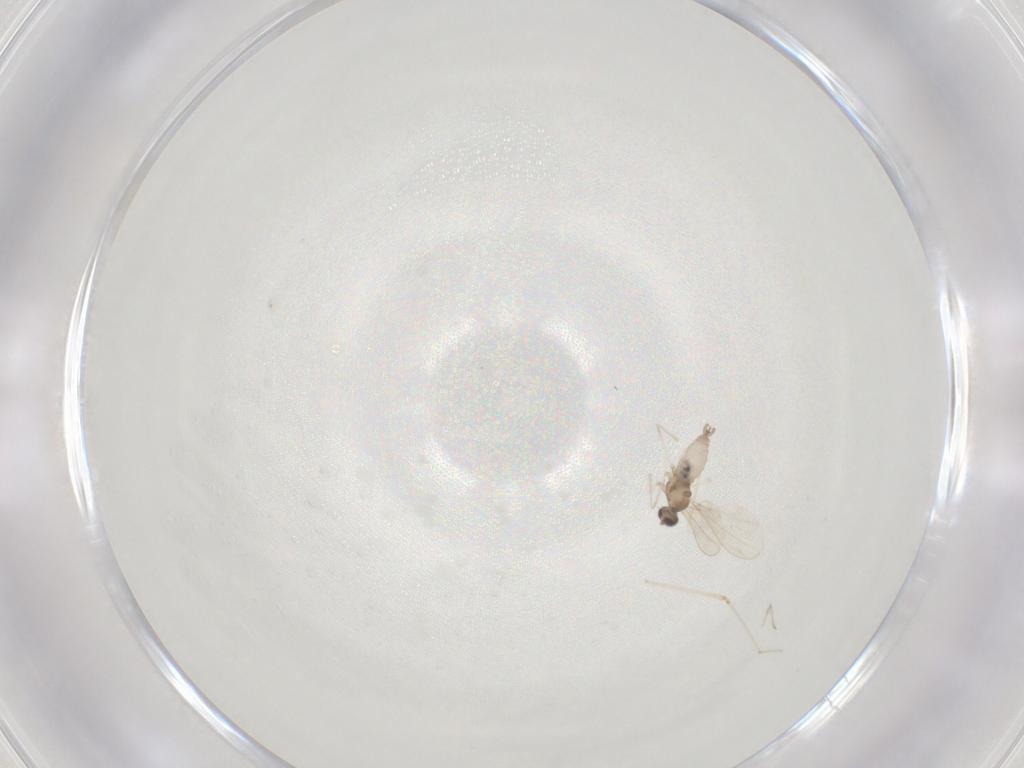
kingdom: Animalia
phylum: Arthropoda
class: Insecta
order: Diptera
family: Cecidomyiidae
